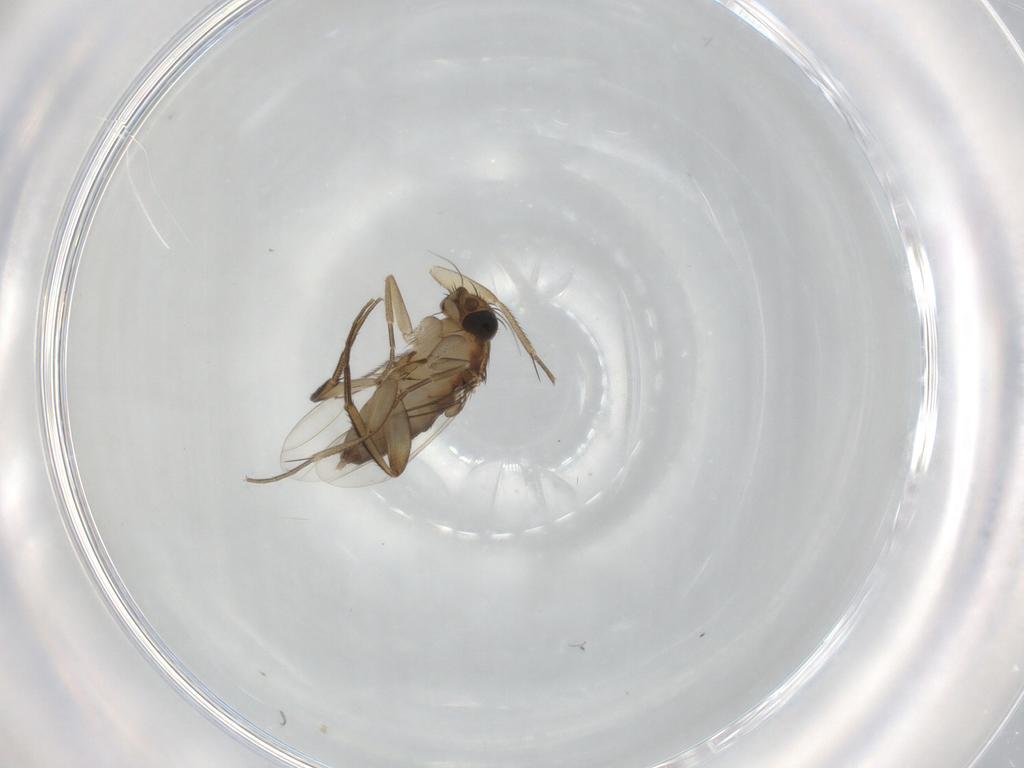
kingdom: Animalia
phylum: Arthropoda
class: Insecta
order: Diptera
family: Phoridae
